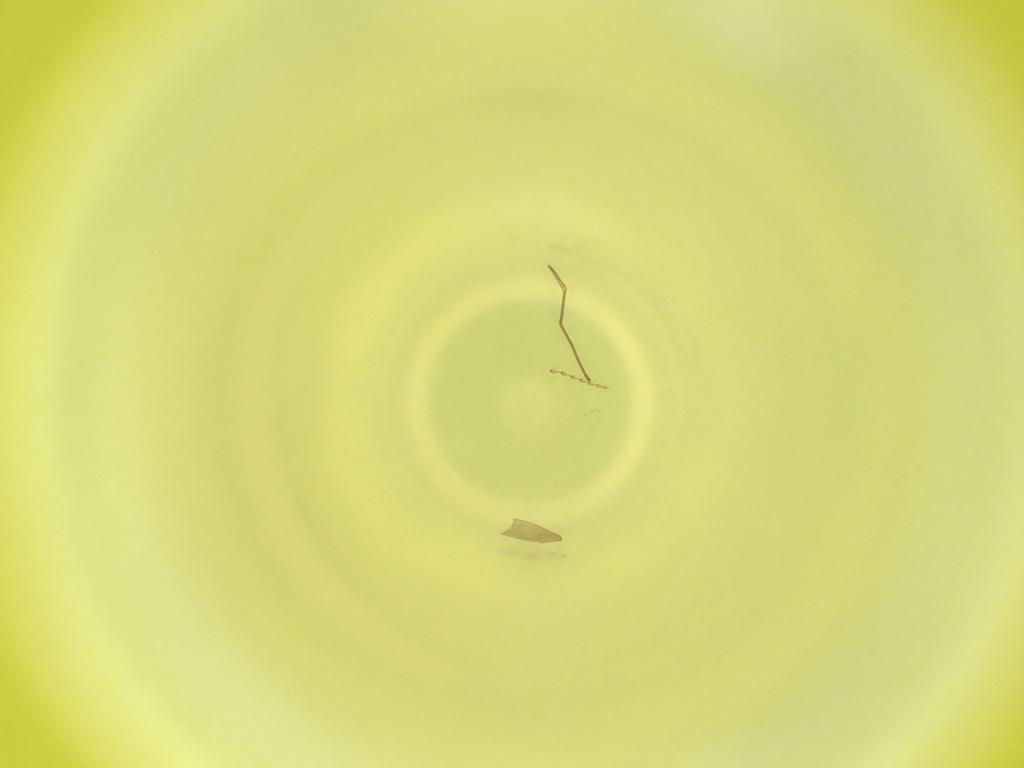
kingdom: Animalia
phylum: Arthropoda
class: Insecta
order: Diptera
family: Cecidomyiidae
